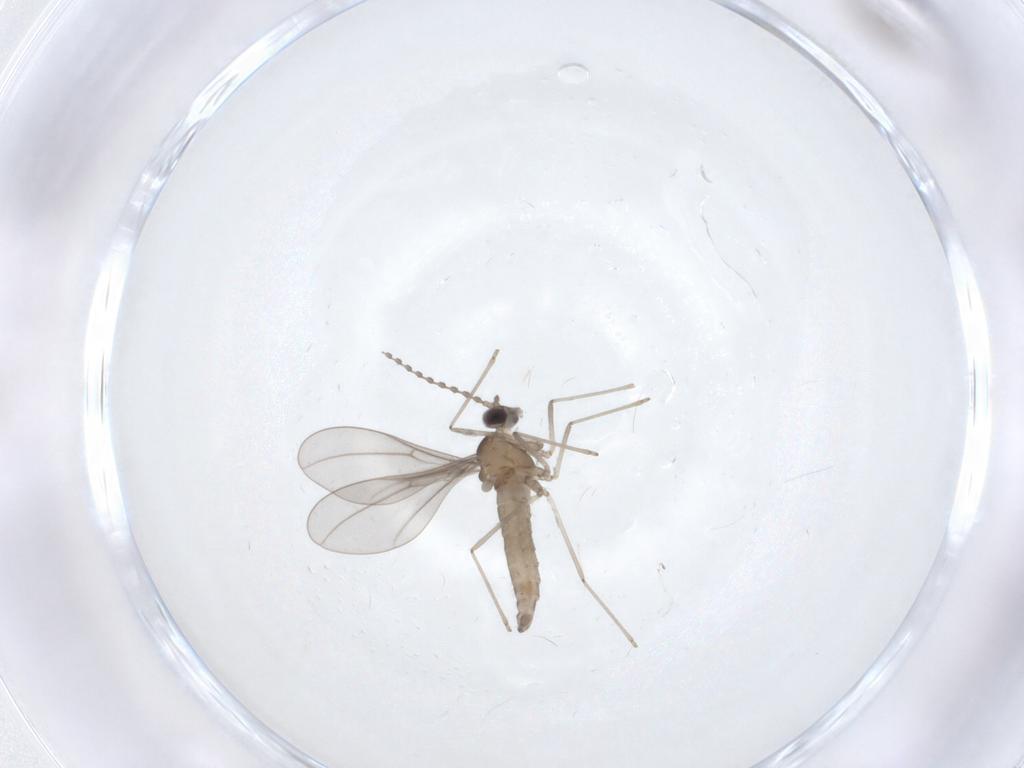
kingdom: Animalia
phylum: Arthropoda
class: Insecta
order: Diptera
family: Cecidomyiidae
